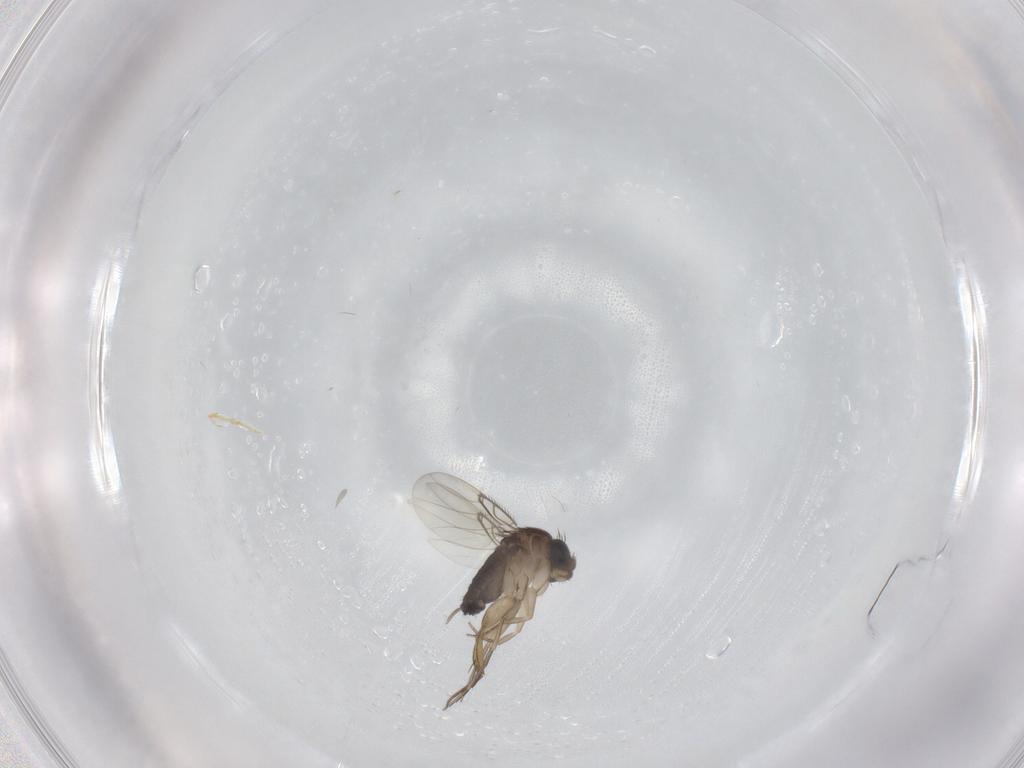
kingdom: Animalia
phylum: Arthropoda
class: Insecta
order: Diptera
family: Phoridae
